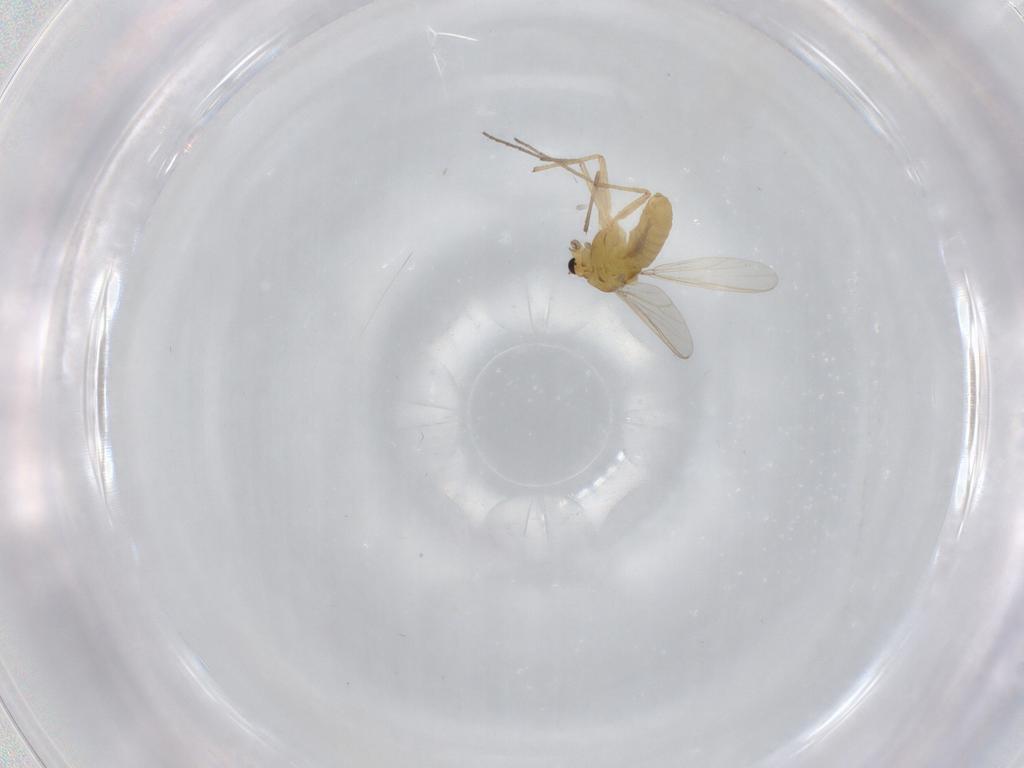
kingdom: Animalia
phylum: Arthropoda
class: Insecta
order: Diptera
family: Chironomidae
